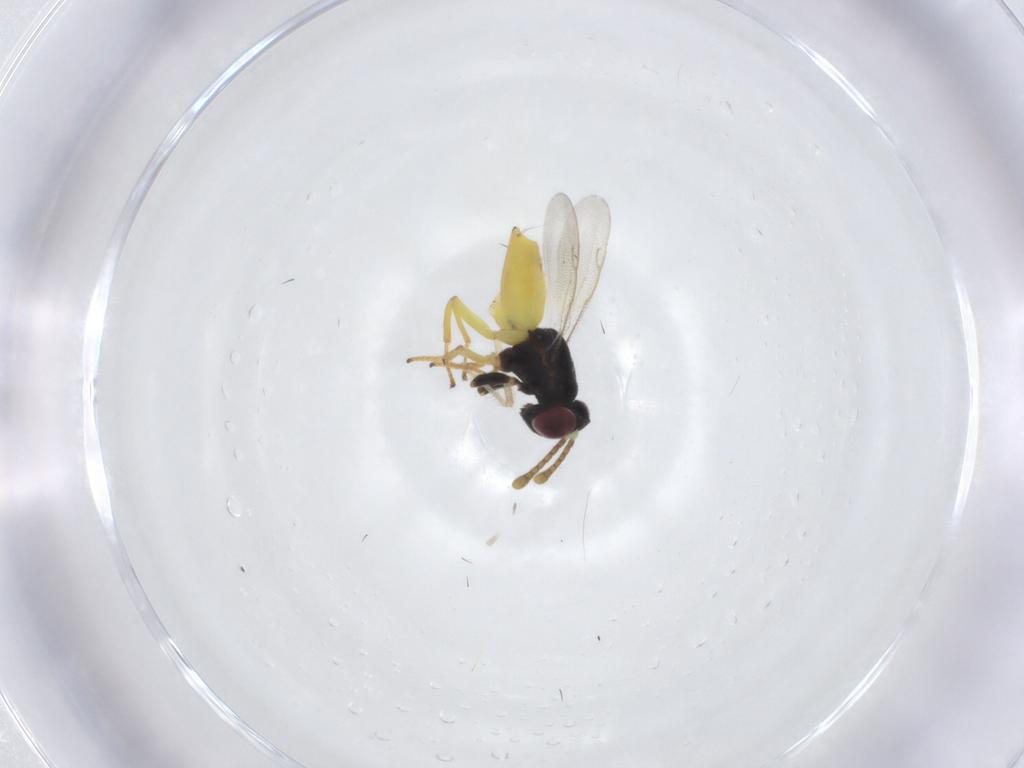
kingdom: Animalia
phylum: Arthropoda
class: Insecta
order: Hymenoptera
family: Trichogrammatidae
